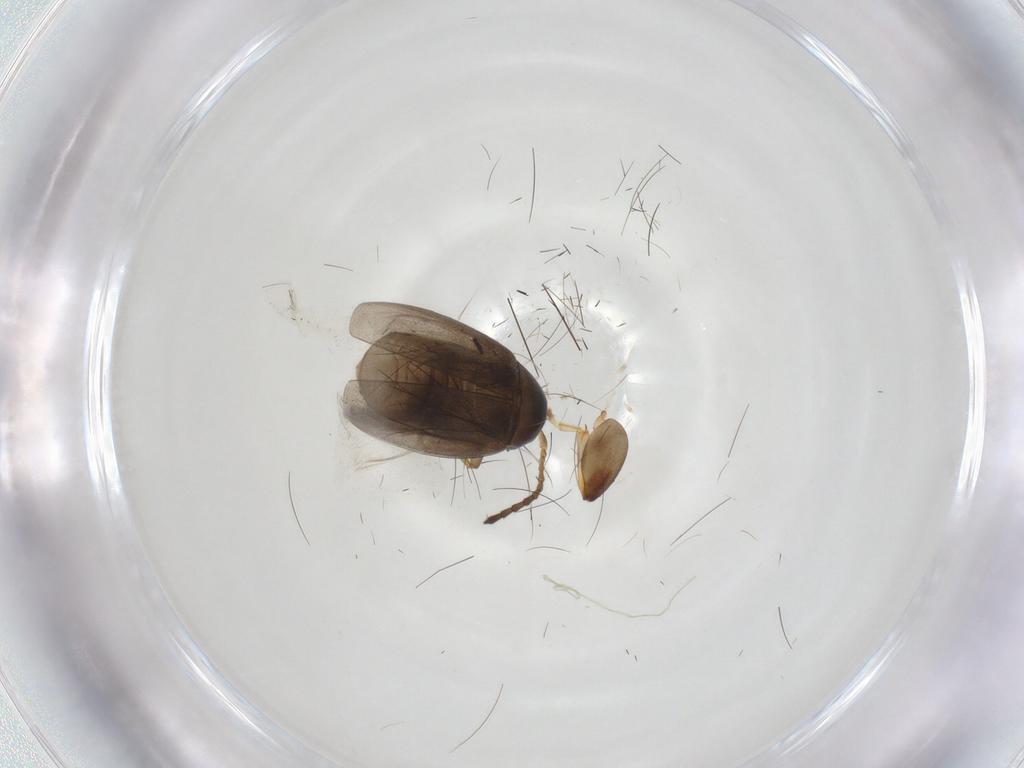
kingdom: Animalia
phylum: Arthropoda
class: Insecta
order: Coleoptera
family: Chrysomelidae
